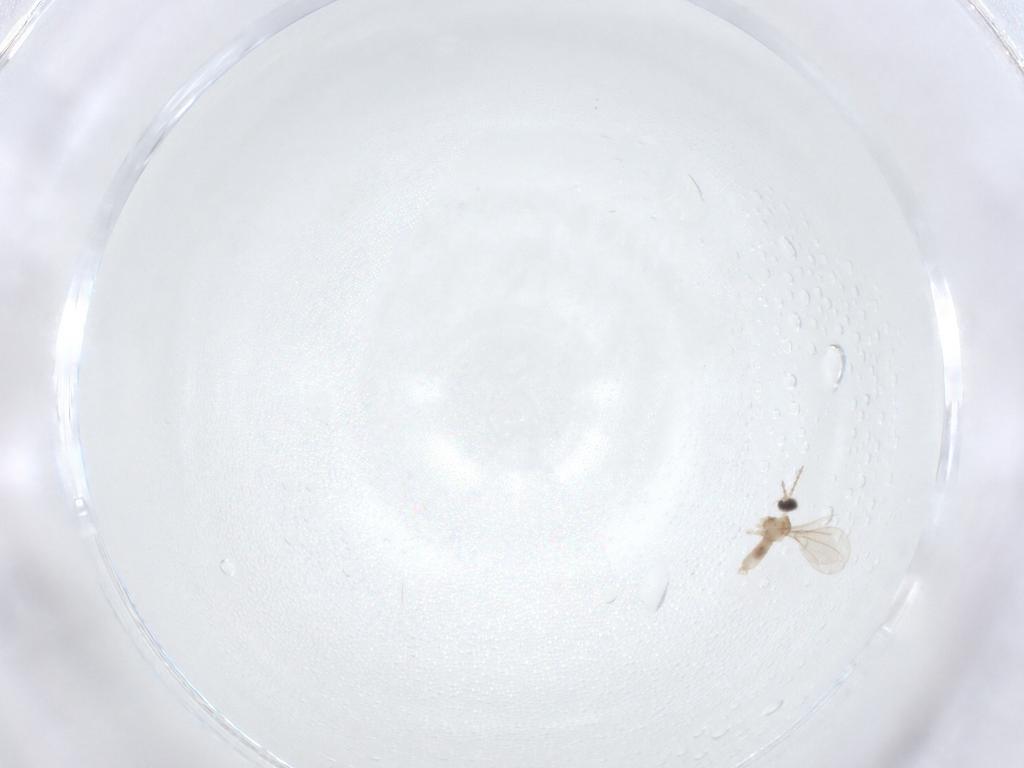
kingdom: Animalia
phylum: Arthropoda
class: Insecta
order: Diptera
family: Cecidomyiidae
